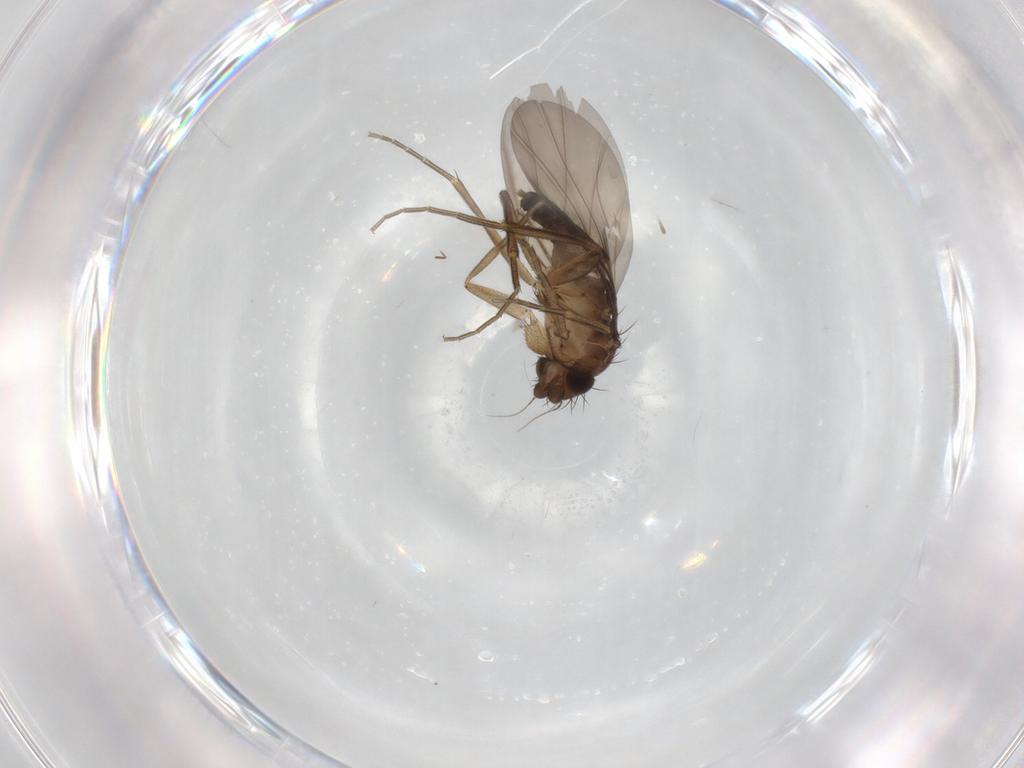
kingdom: Animalia
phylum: Arthropoda
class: Insecta
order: Diptera
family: Phoridae
